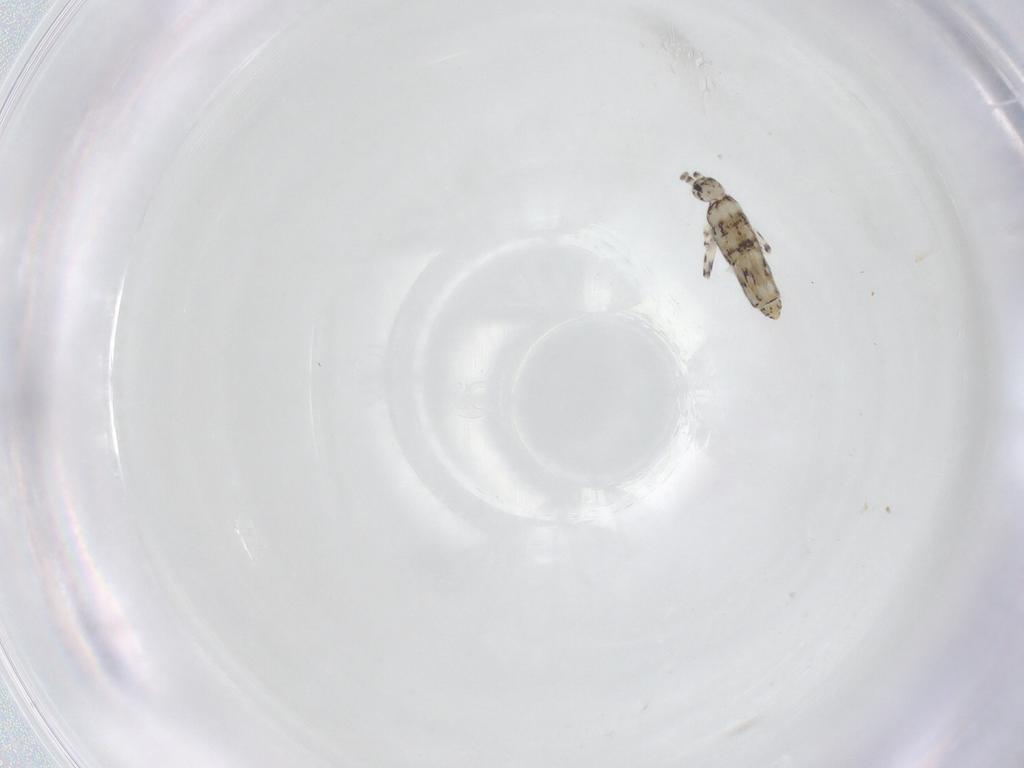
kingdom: Animalia
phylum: Arthropoda
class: Collembola
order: Entomobryomorpha
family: Entomobryidae
